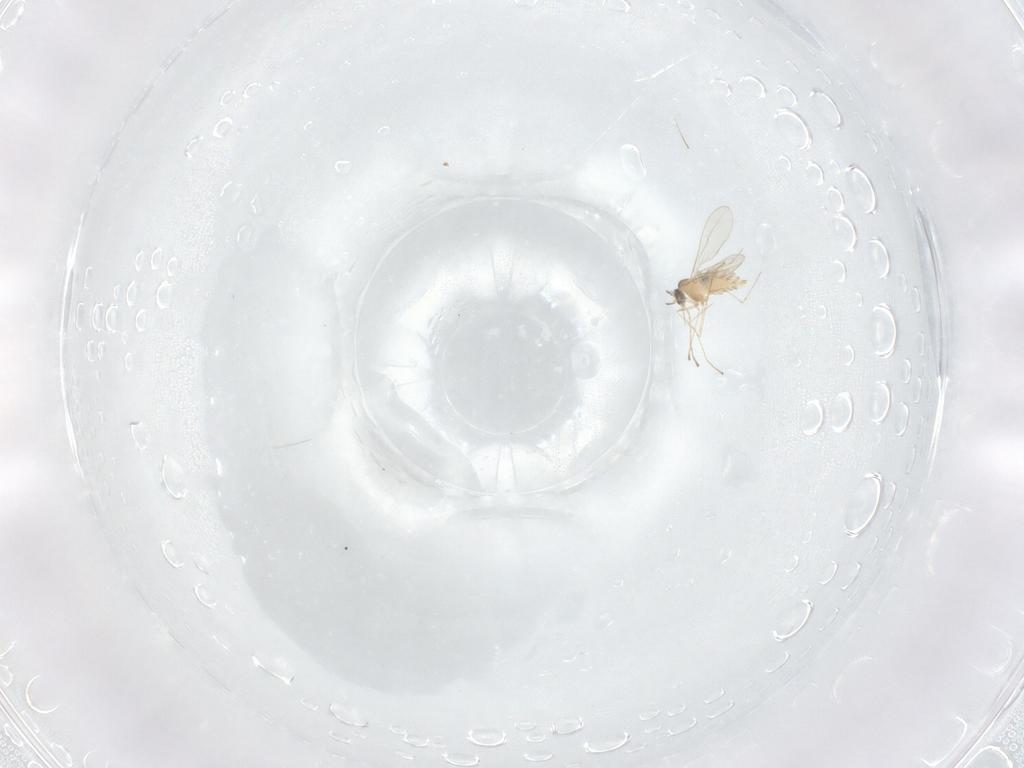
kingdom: Animalia
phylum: Arthropoda
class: Insecta
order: Diptera
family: Cecidomyiidae
